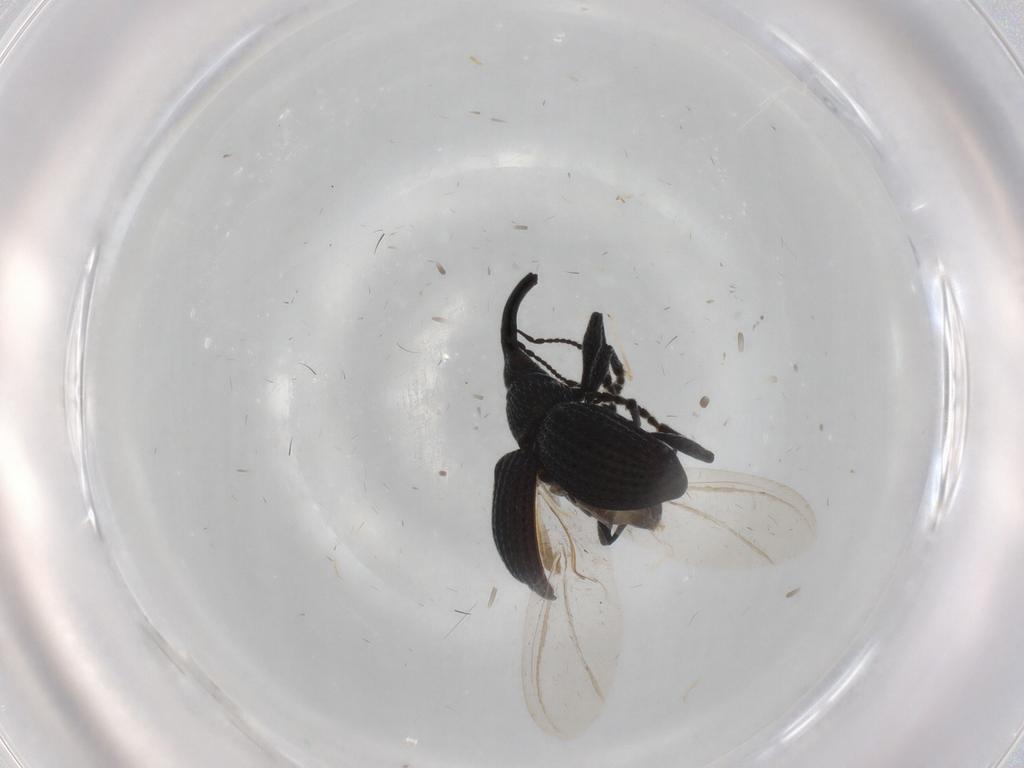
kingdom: Animalia
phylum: Arthropoda
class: Insecta
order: Coleoptera
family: Brentidae
